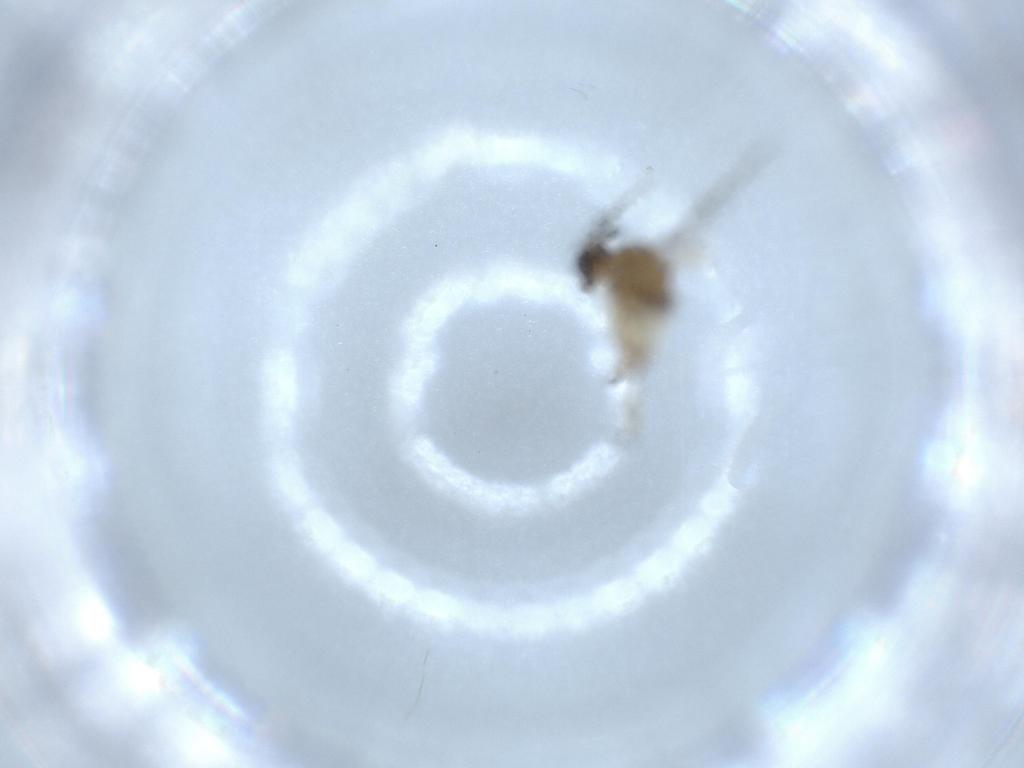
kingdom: Animalia
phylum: Arthropoda
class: Insecta
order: Diptera
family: Sciaridae
